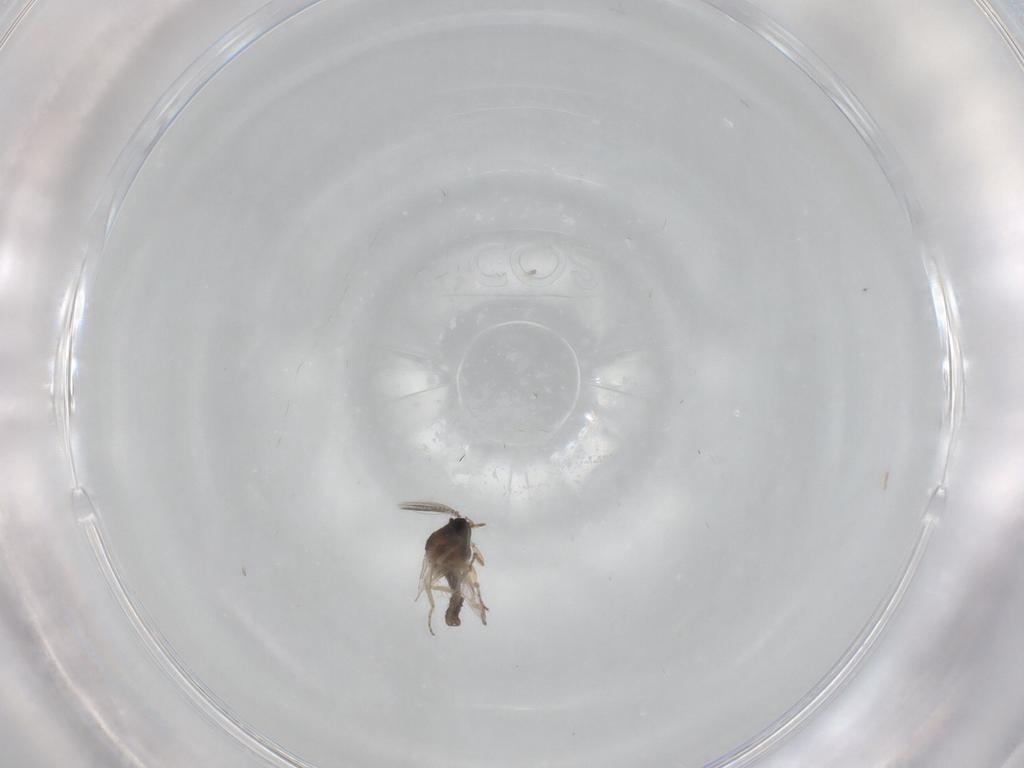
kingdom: Animalia
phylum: Arthropoda
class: Insecta
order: Diptera
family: Ceratopogonidae
